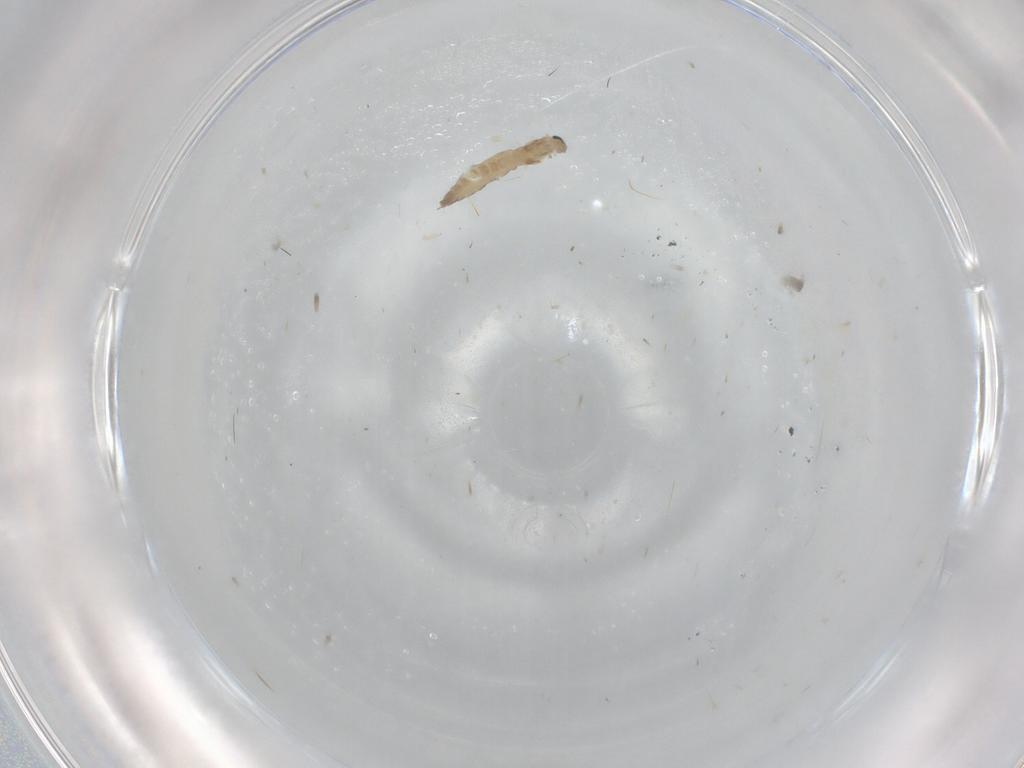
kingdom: Animalia
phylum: Arthropoda
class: Insecta
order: Diptera
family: Cecidomyiidae
